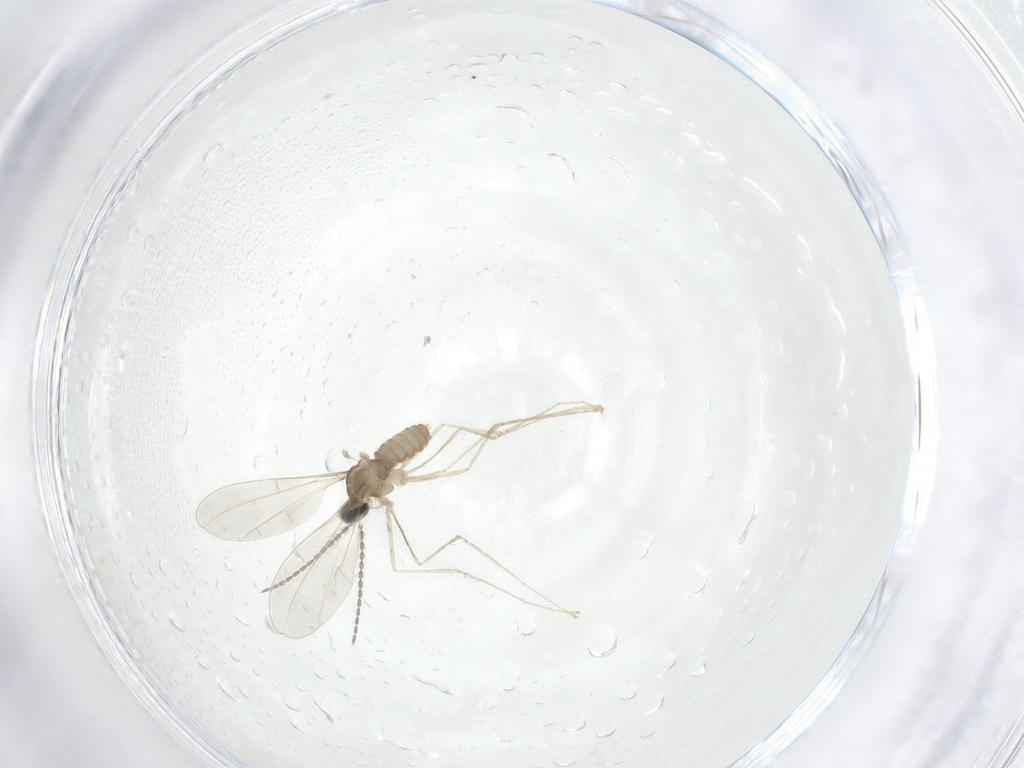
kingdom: Animalia
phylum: Arthropoda
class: Insecta
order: Diptera
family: Cecidomyiidae
